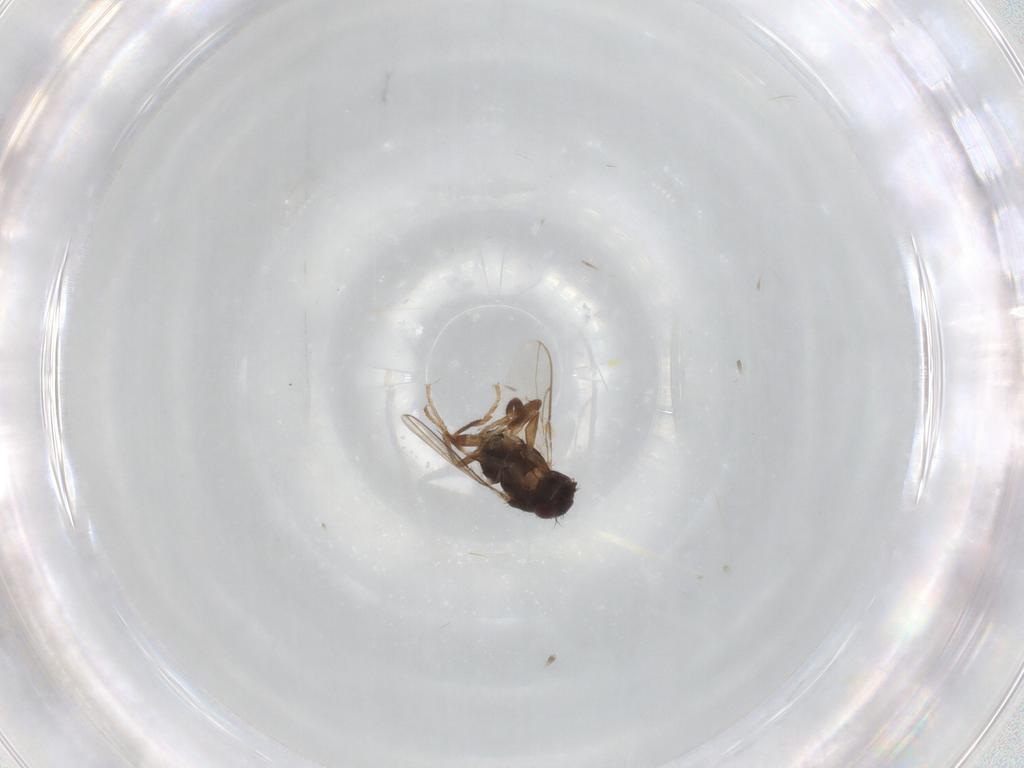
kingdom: Animalia
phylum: Arthropoda
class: Insecta
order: Diptera
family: Sphaeroceridae
